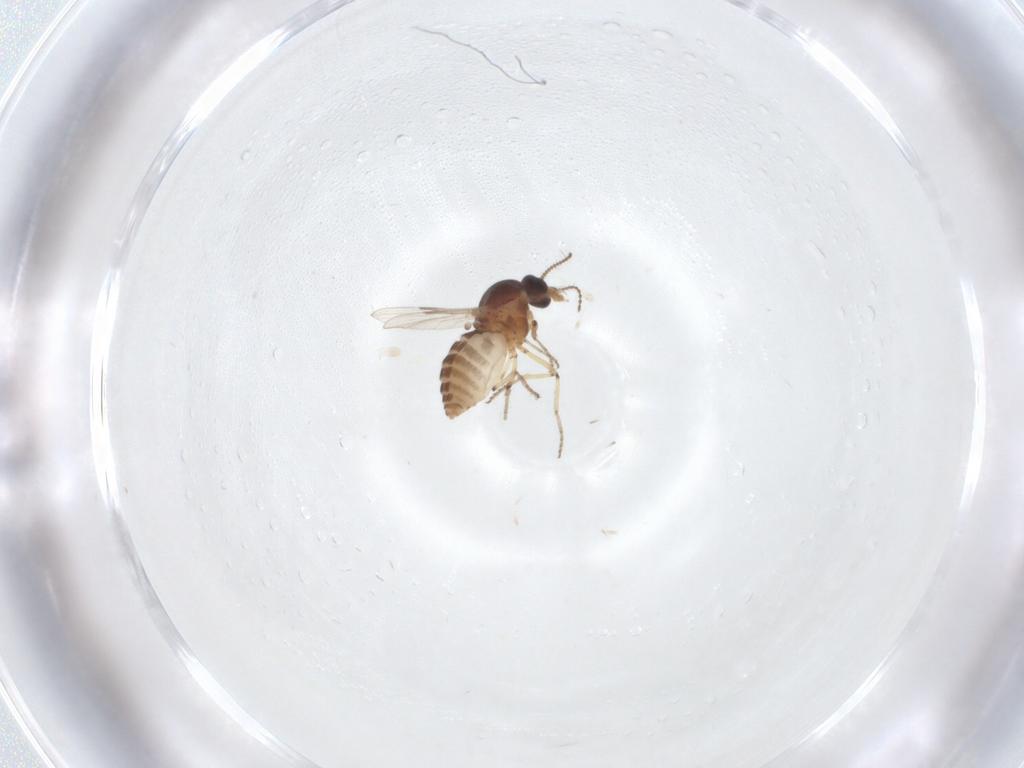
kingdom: Animalia
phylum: Arthropoda
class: Insecta
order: Diptera
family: Ceratopogonidae
